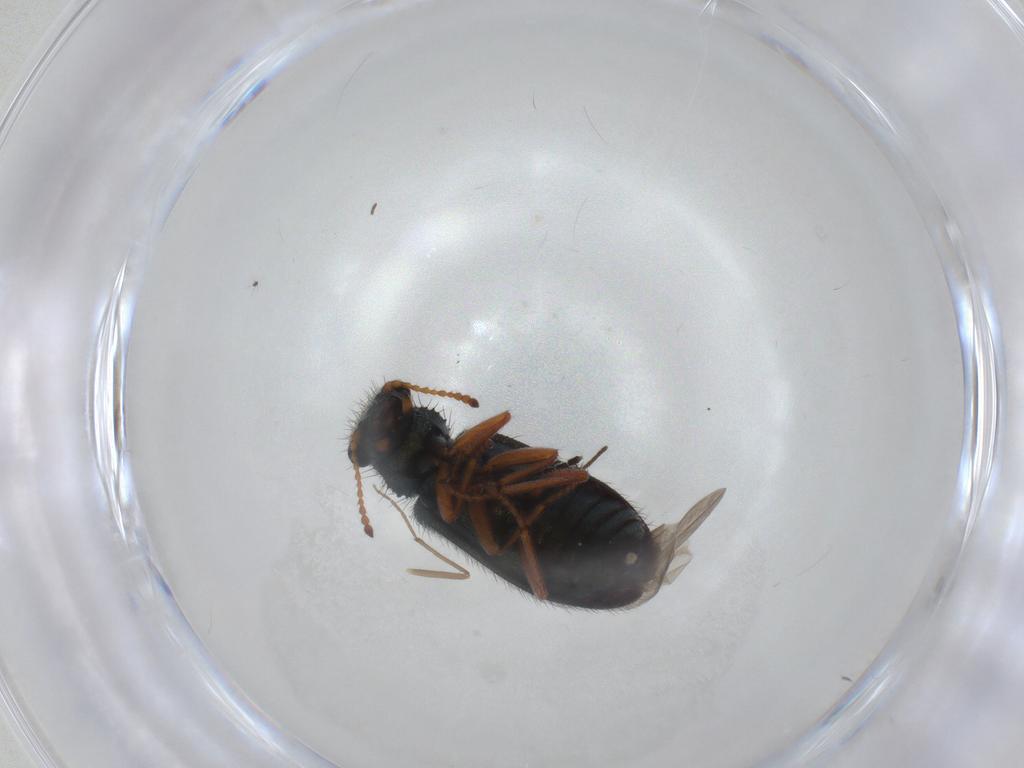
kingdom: Animalia
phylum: Arthropoda
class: Insecta
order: Coleoptera
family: Melyridae
